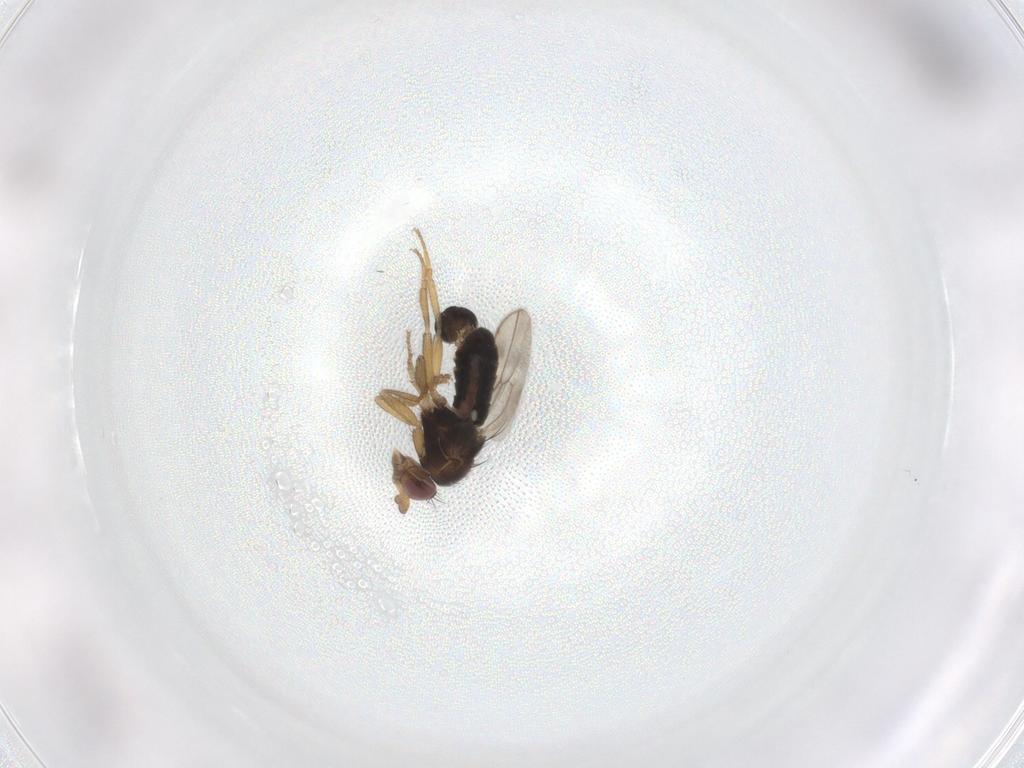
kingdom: Animalia
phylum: Arthropoda
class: Insecta
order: Diptera
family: Sphaeroceridae
